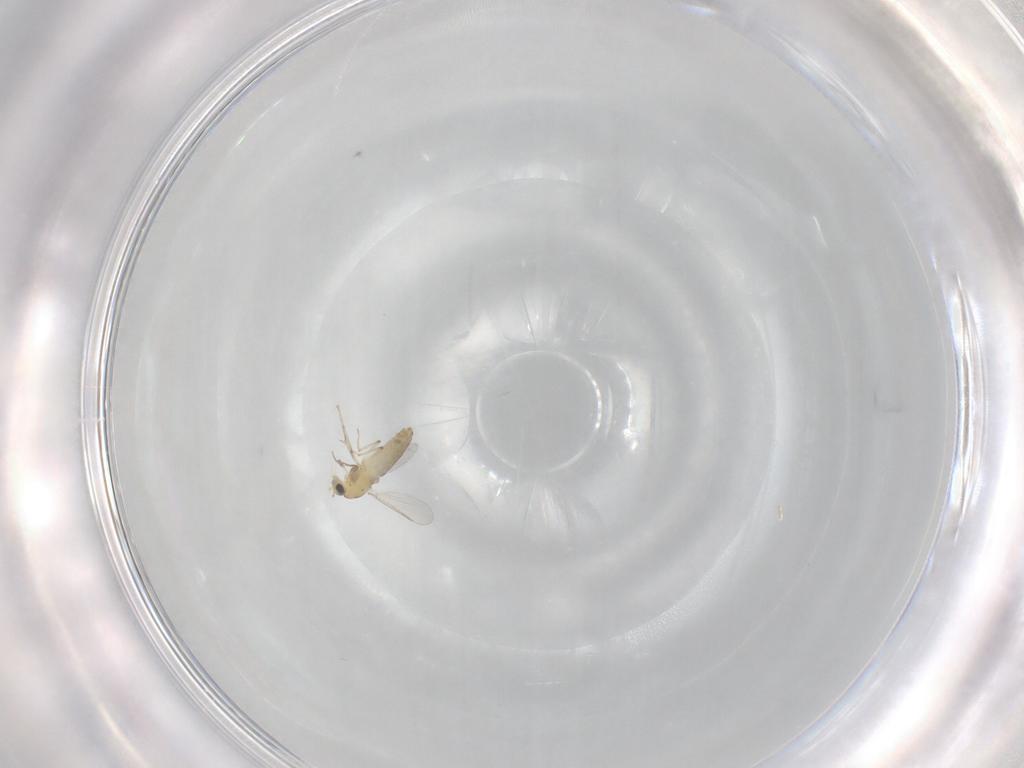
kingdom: Animalia
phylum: Arthropoda
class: Insecta
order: Diptera
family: Chironomidae
